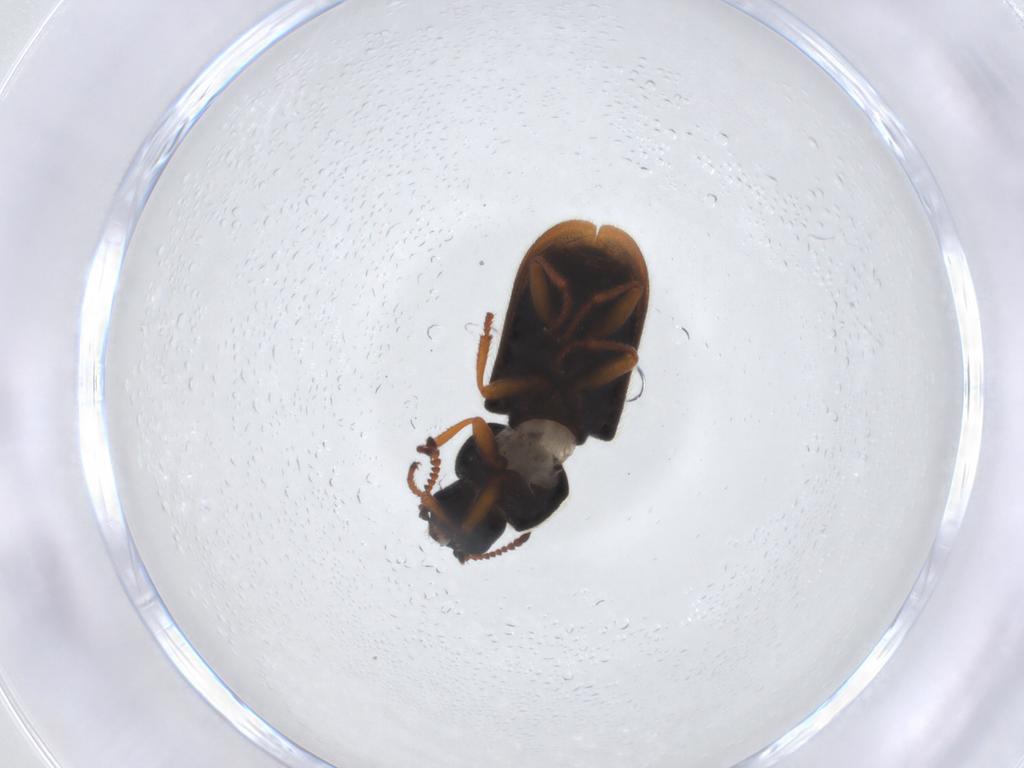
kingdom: Animalia
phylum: Arthropoda
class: Insecta
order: Coleoptera
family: Melyridae
